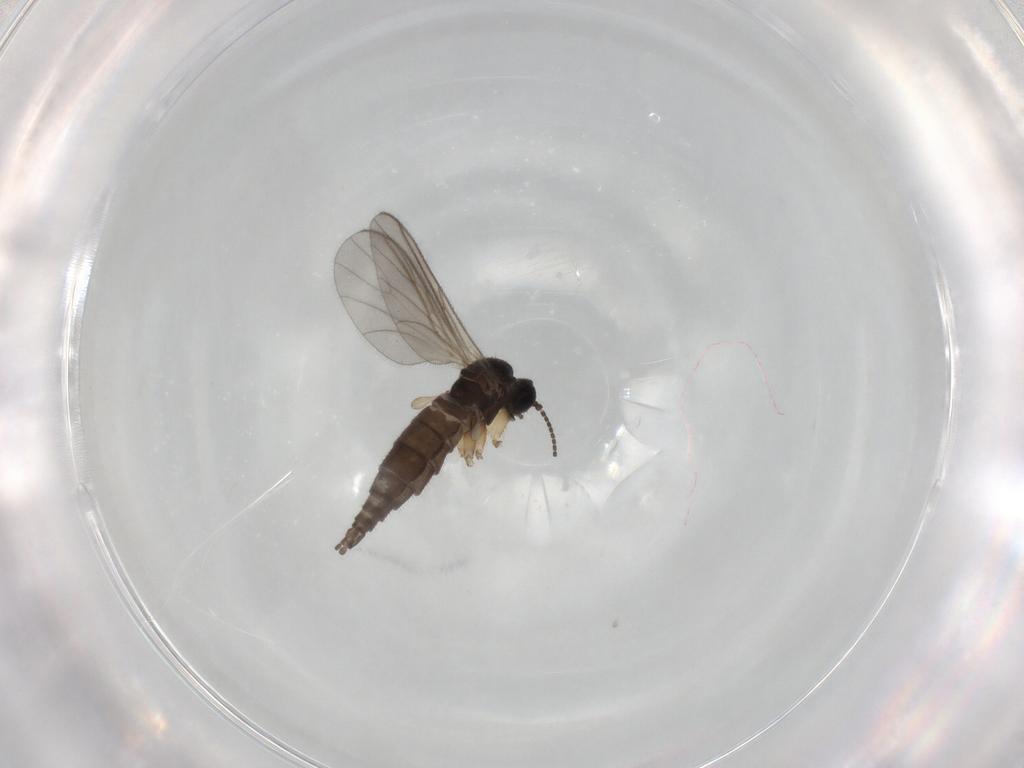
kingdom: Animalia
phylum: Arthropoda
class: Insecta
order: Diptera
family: Sciaridae
